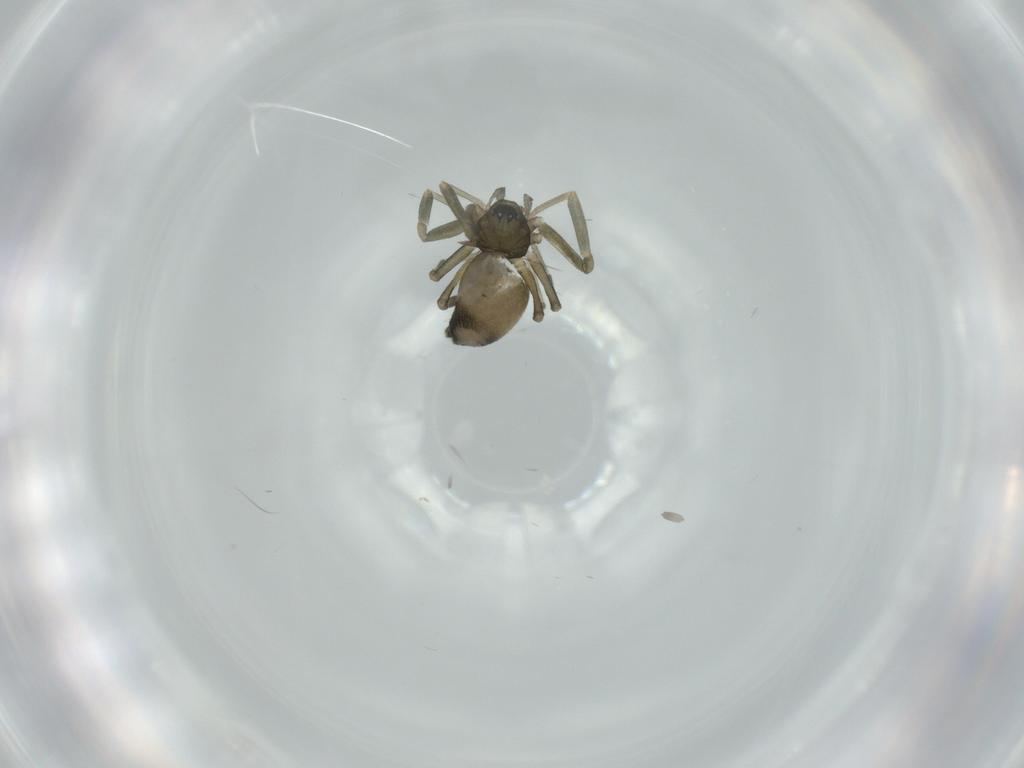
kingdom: Animalia
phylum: Arthropoda
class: Arachnida
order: Araneae
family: Linyphiidae
